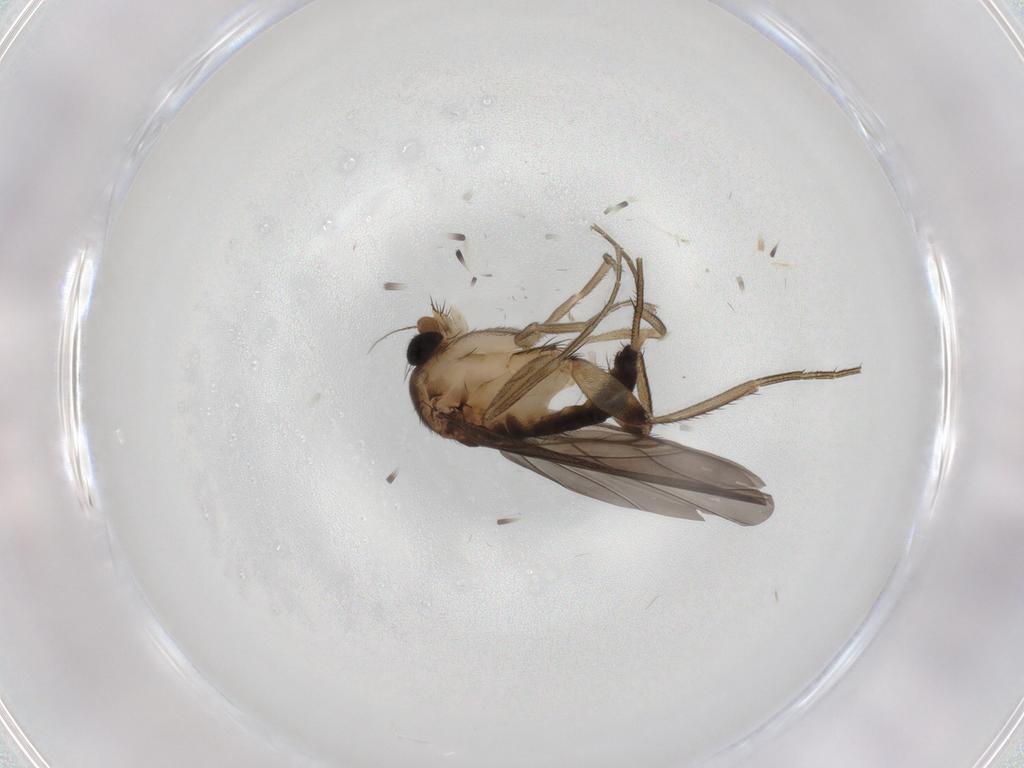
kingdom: Animalia
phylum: Arthropoda
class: Insecta
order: Diptera
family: Phoridae
